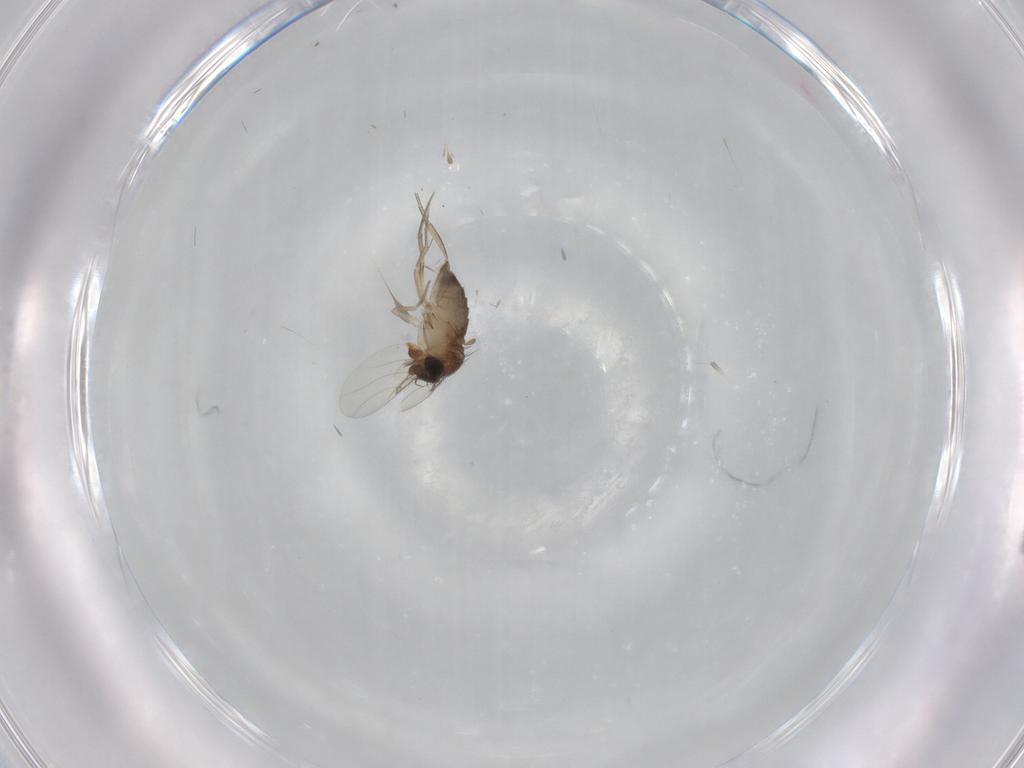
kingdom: Animalia
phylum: Arthropoda
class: Insecta
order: Diptera
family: Phoridae
